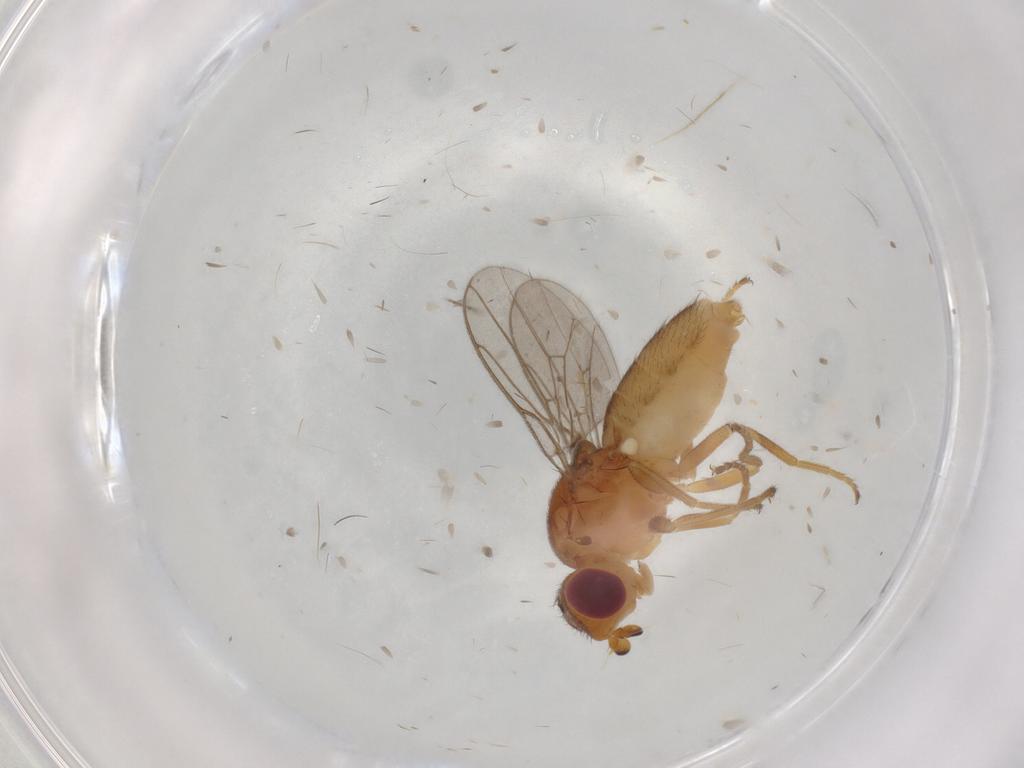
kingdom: Animalia
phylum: Arthropoda
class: Insecta
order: Diptera
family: Chloropidae
